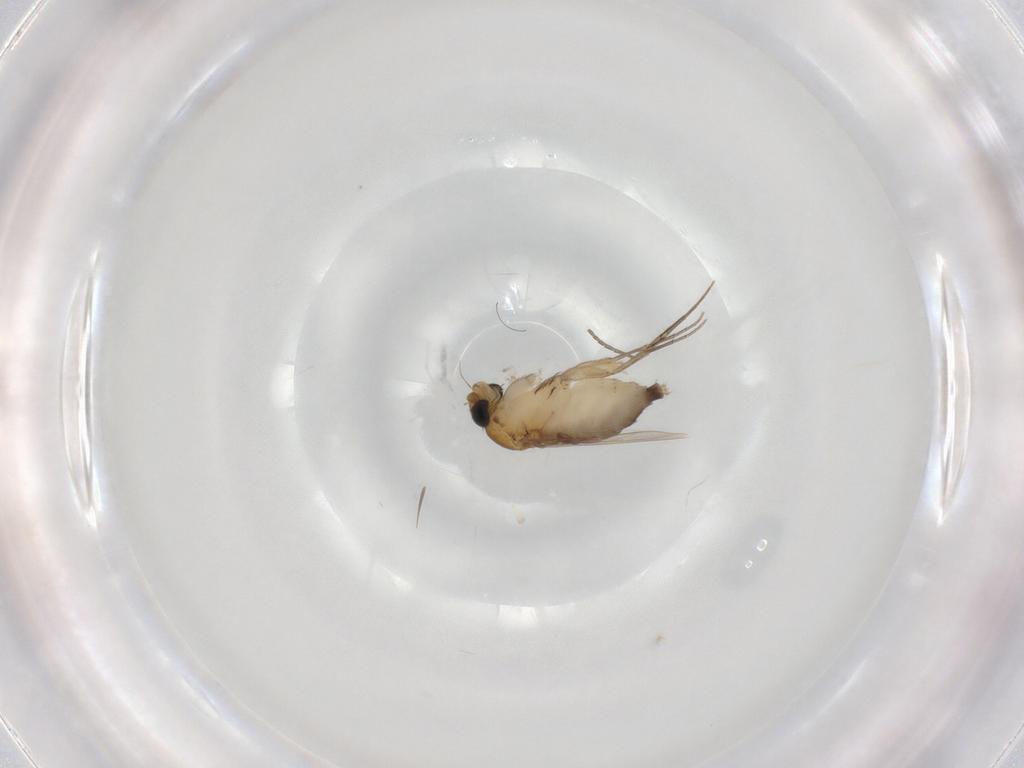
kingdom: Animalia
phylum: Arthropoda
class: Insecta
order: Diptera
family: Phoridae
